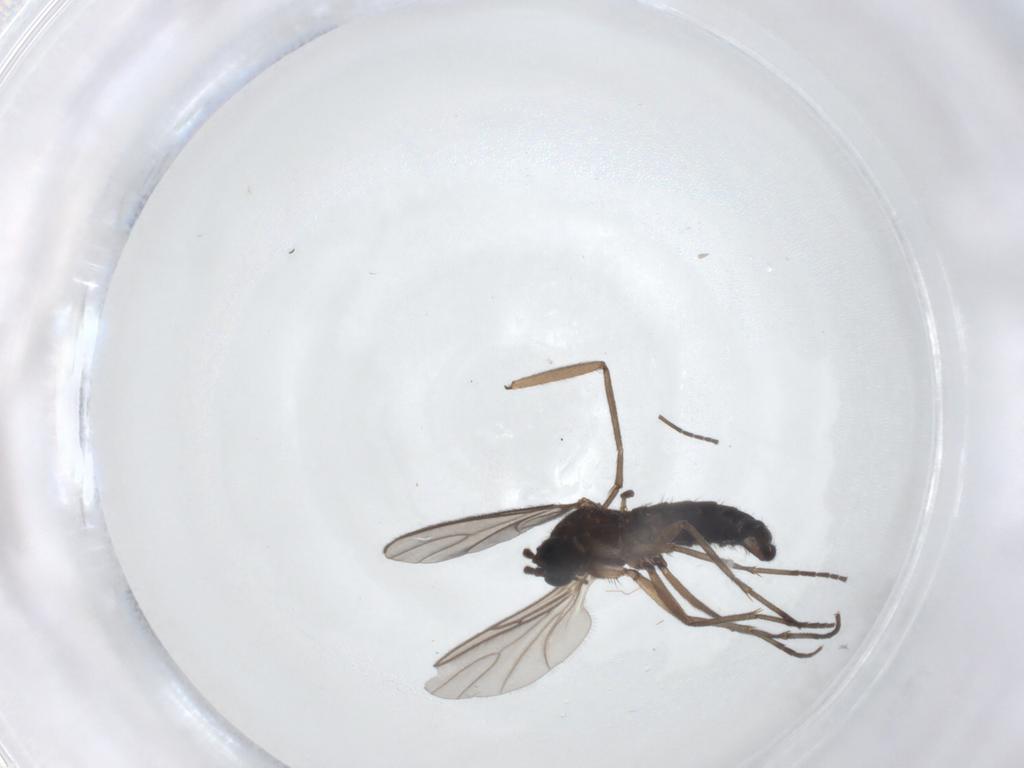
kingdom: Animalia
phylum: Arthropoda
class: Insecta
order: Diptera
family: Sciaridae
